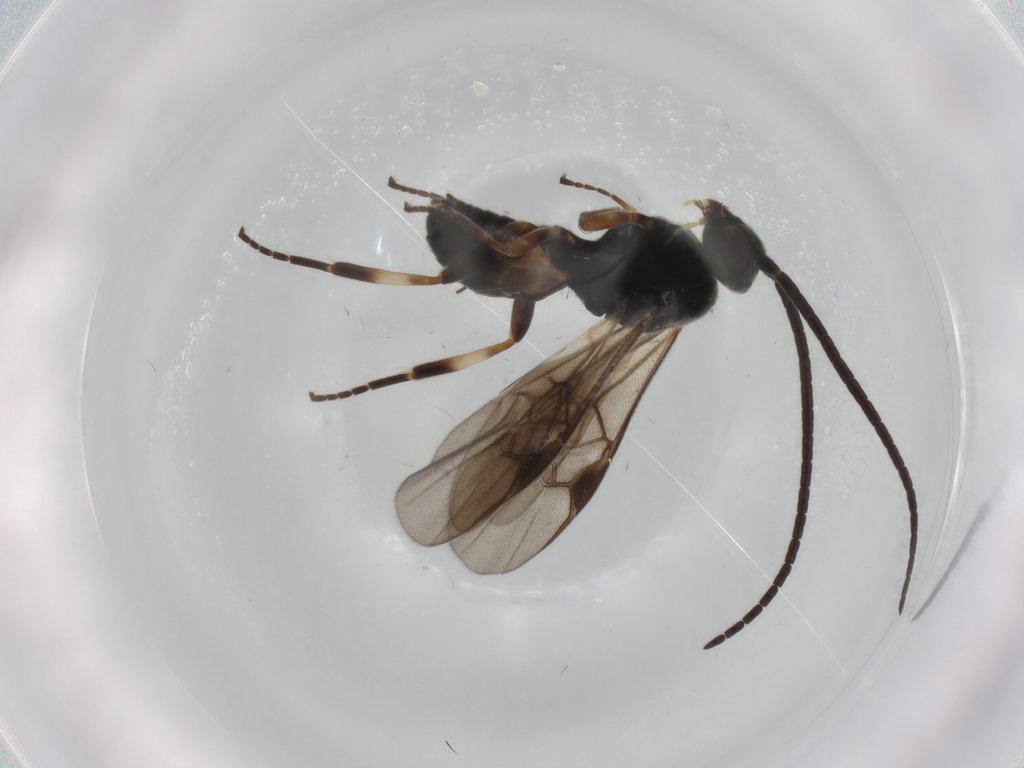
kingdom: Animalia
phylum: Arthropoda
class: Insecta
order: Hymenoptera
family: Braconidae
